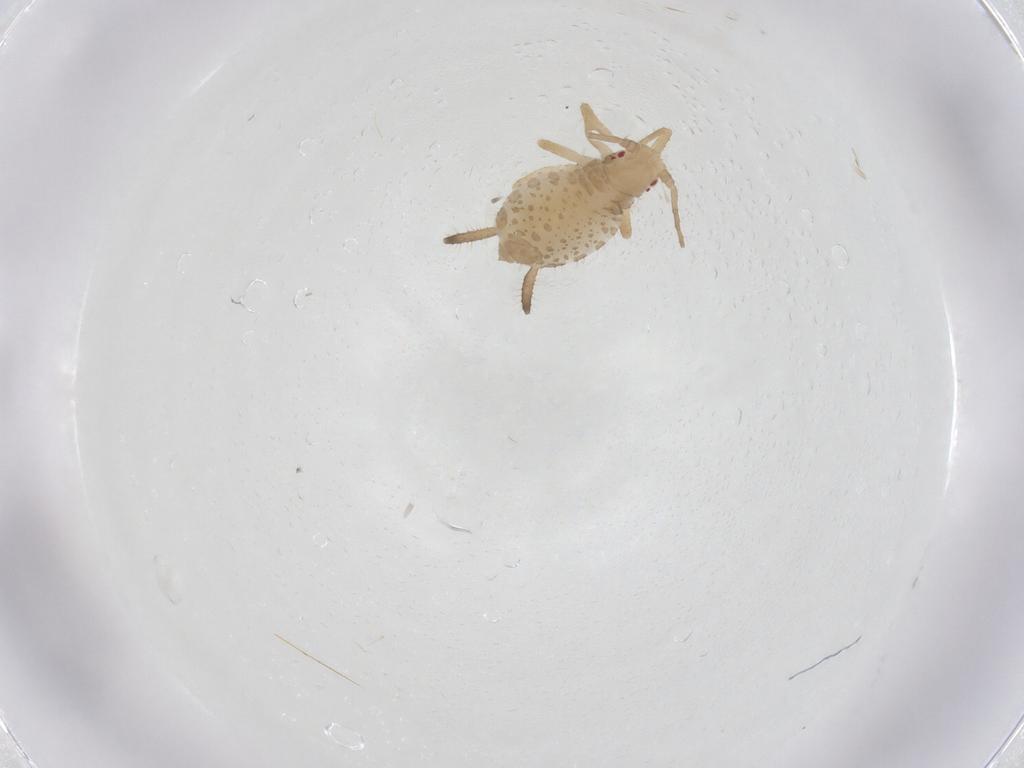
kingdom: Animalia
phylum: Arthropoda
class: Insecta
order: Hemiptera
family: Aphididae
